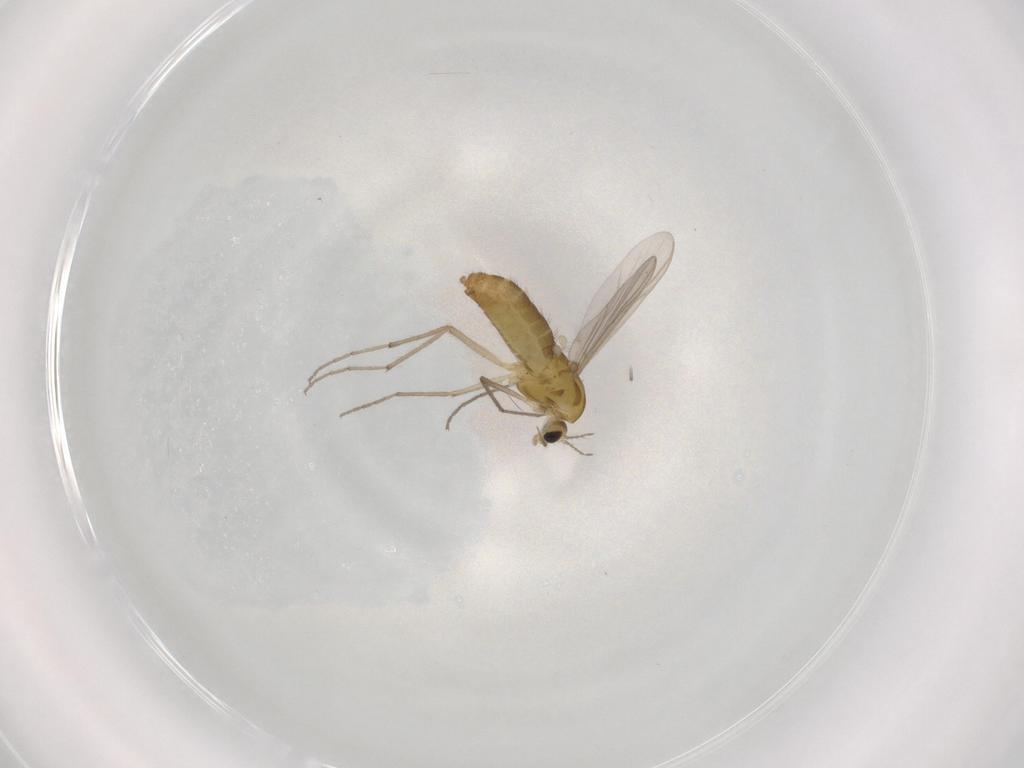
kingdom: Animalia
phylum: Arthropoda
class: Insecta
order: Diptera
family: Chironomidae
